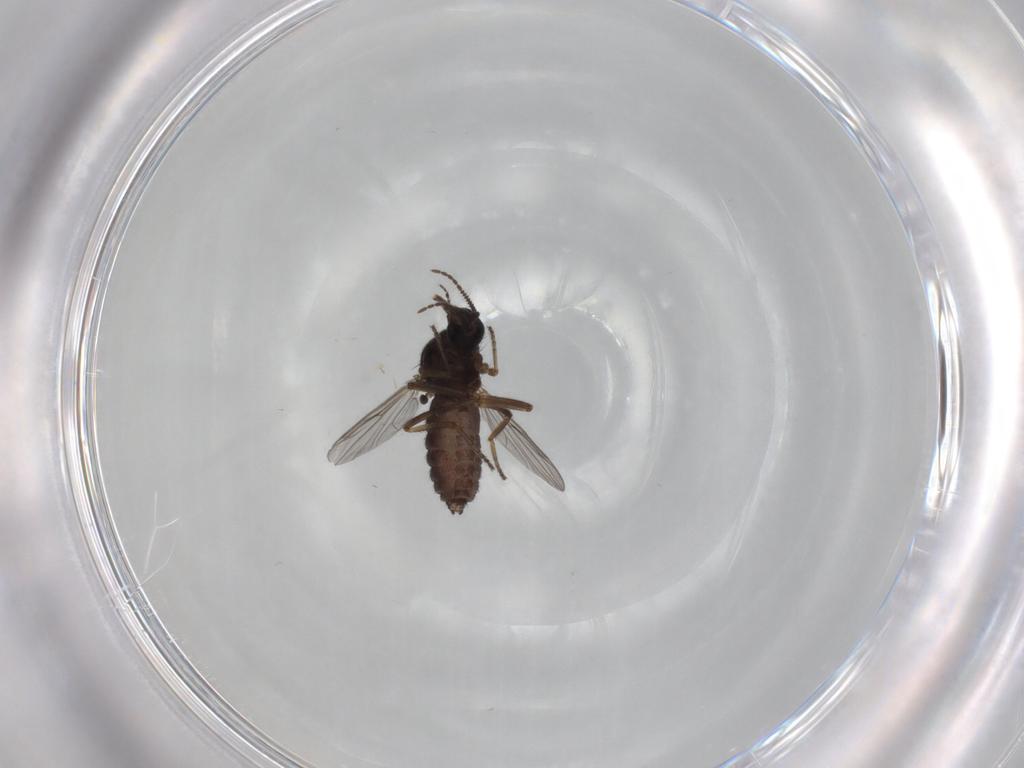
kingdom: Animalia
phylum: Arthropoda
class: Insecta
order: Diptera
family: Ceratopogonidae
